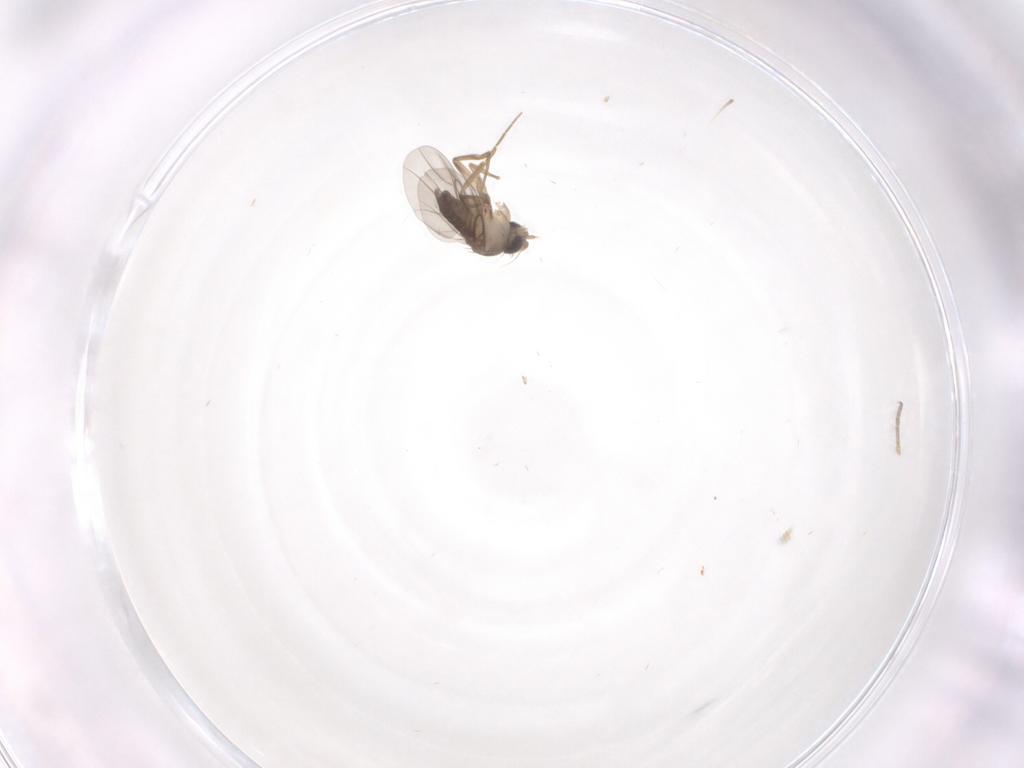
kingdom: Animalia
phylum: Arthropoda
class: Insecta
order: Diptera
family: Phoridae
